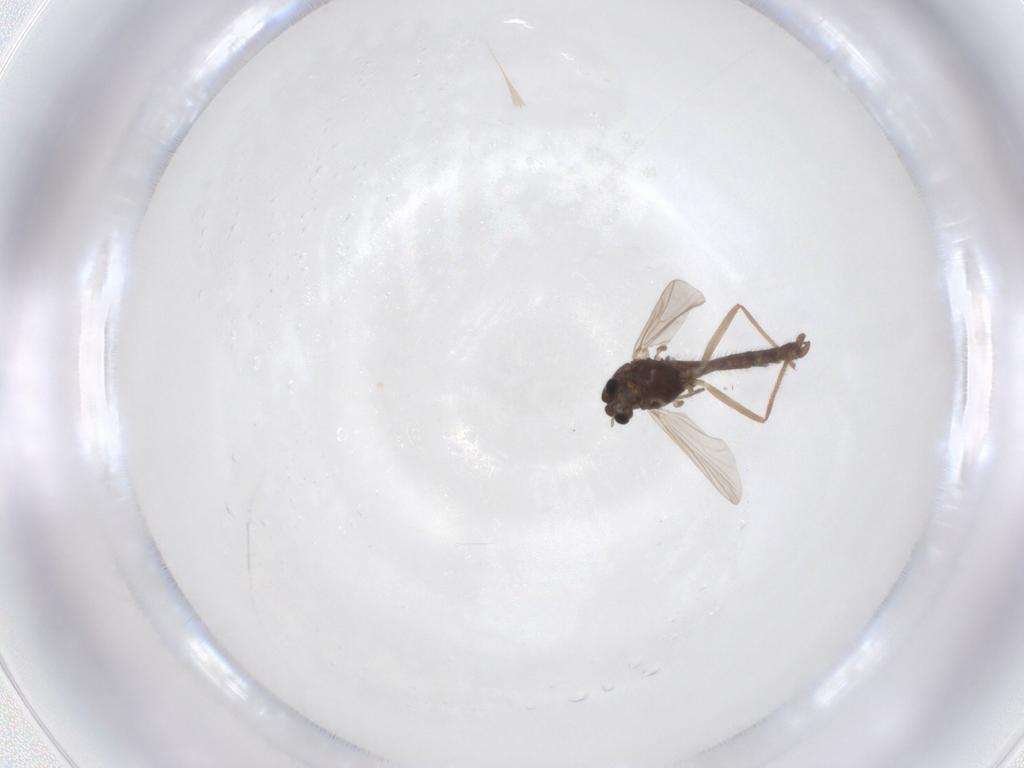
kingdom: Animalia
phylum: Arthropoda
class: Insecta
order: Diptera
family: Chironomidae
